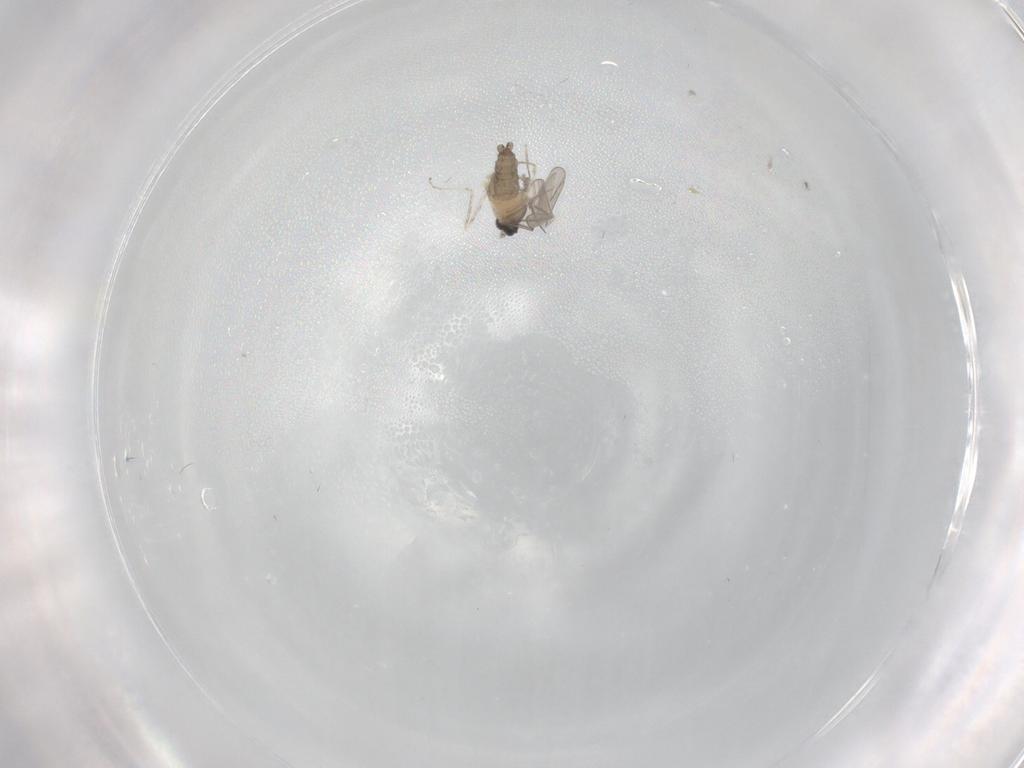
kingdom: Animalia
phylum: Arthropoda
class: Insecta
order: Diptera
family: Cecidomyiidae
